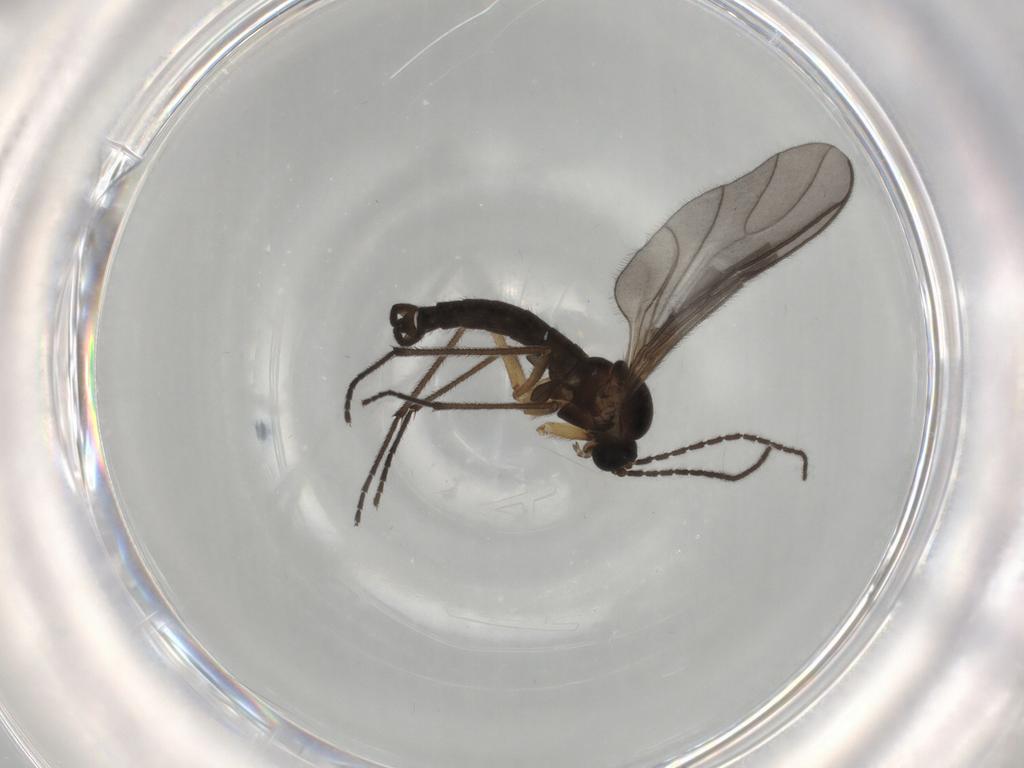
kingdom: Animalia
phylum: Arthropoda
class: Insecta
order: Diptera
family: Sciaridae
